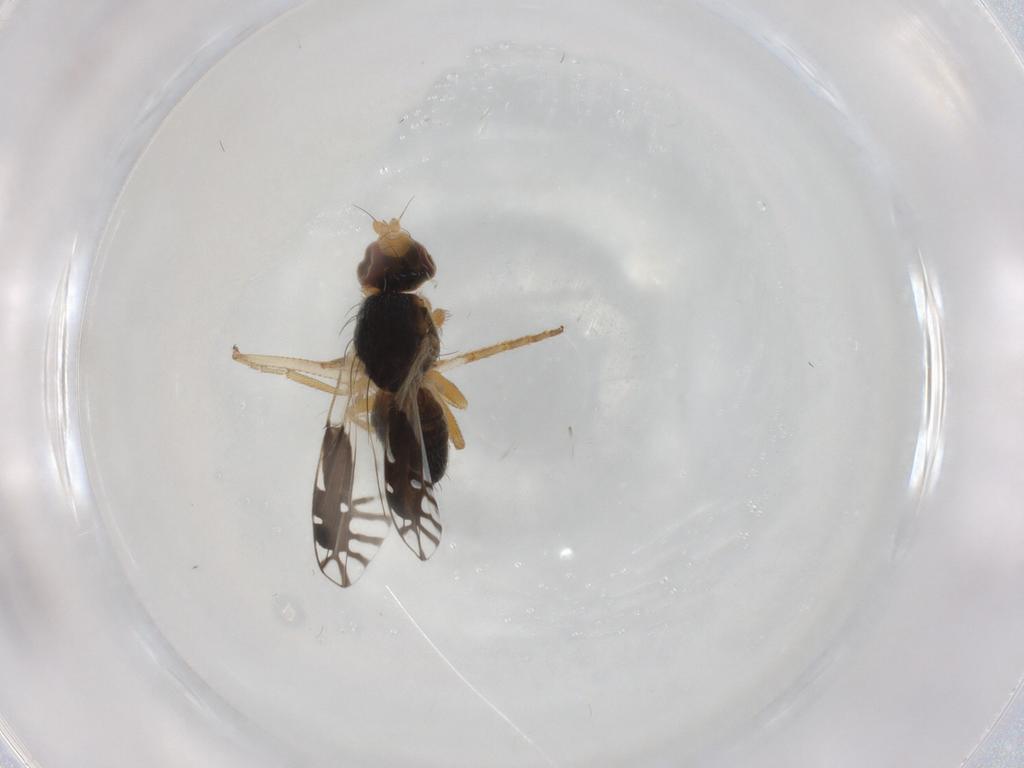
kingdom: Animalia
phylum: Arthropoda
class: Insecta
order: Diptera
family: Tephritidae
